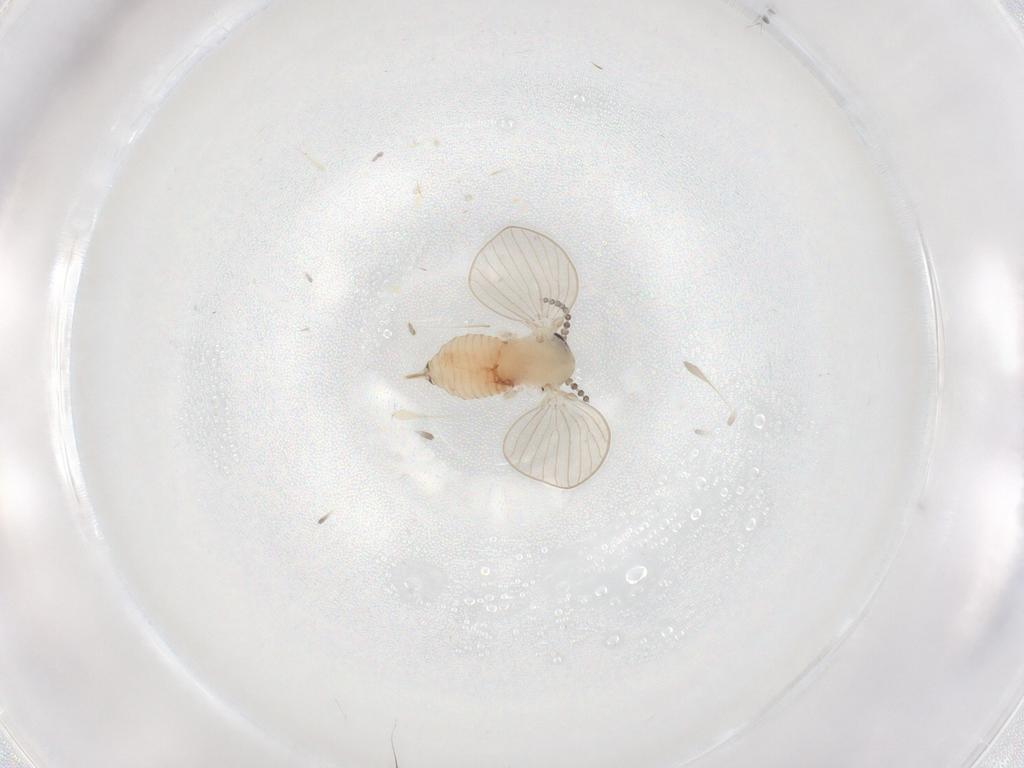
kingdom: Animalia
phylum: Arthropoda
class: Insecta
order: Diptera
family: Psychodidae
